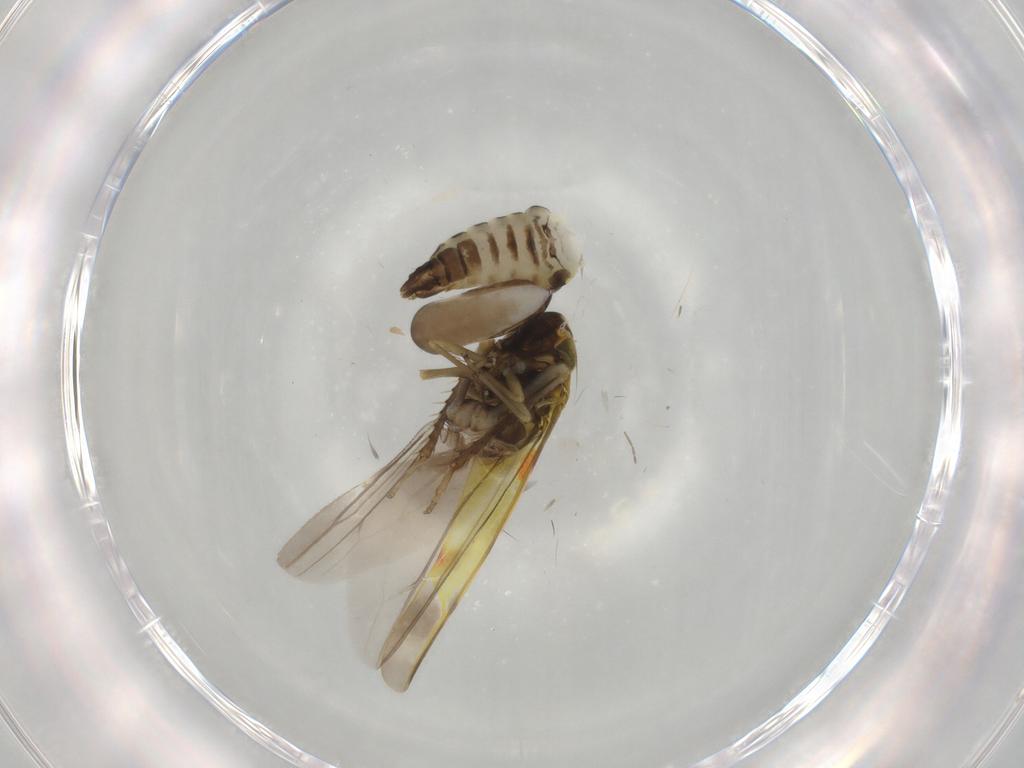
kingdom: Animalia
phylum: Arthropoda
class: Insecta
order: Hemiptera
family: Cicadellidae
